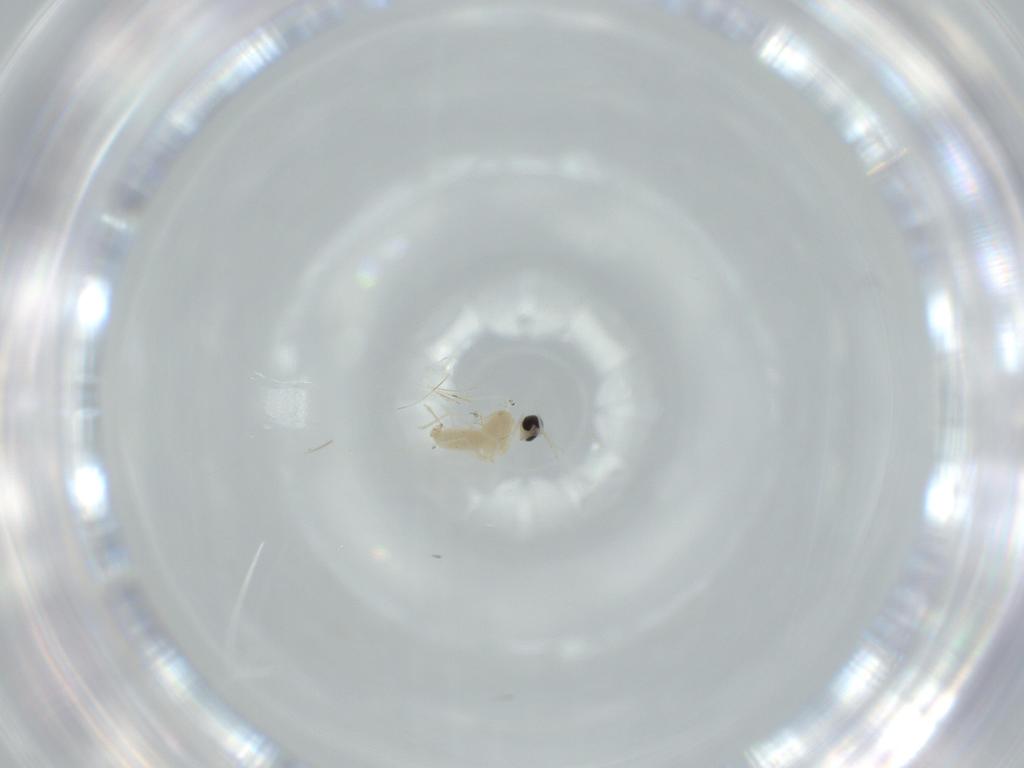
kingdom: Animalia
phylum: Arthropoda
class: Insecta
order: Diptera
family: Cecidomyiidae
